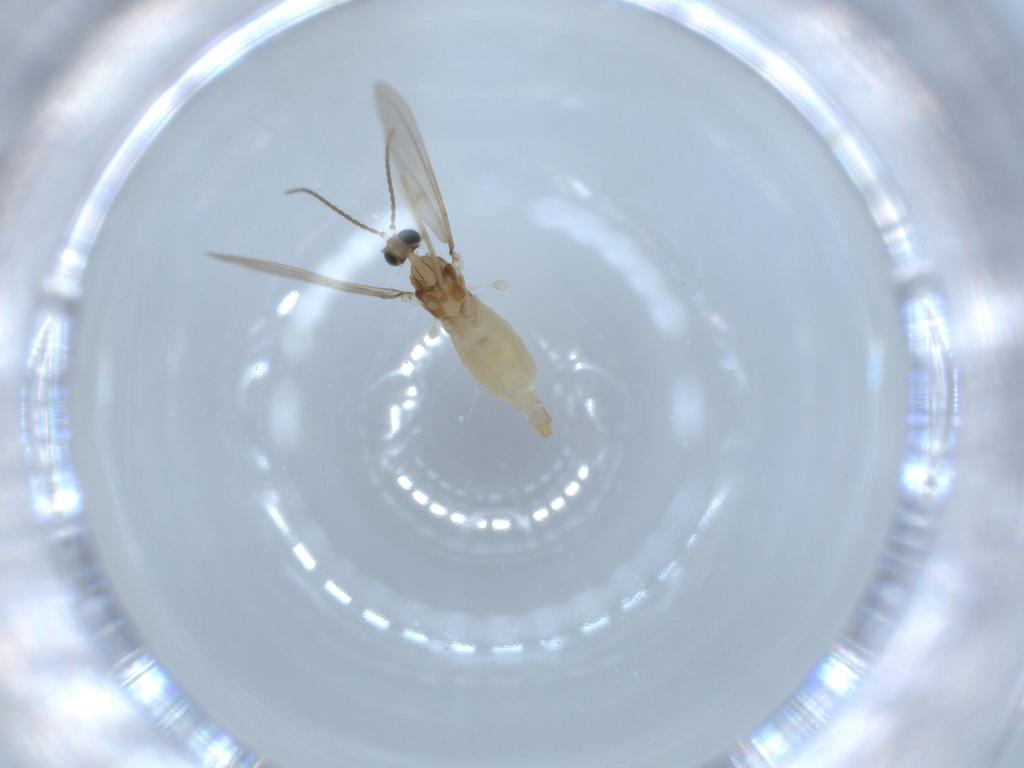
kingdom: Animalia
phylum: Arthropoda
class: Insecta
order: Diptera
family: Cecidomyiidae
